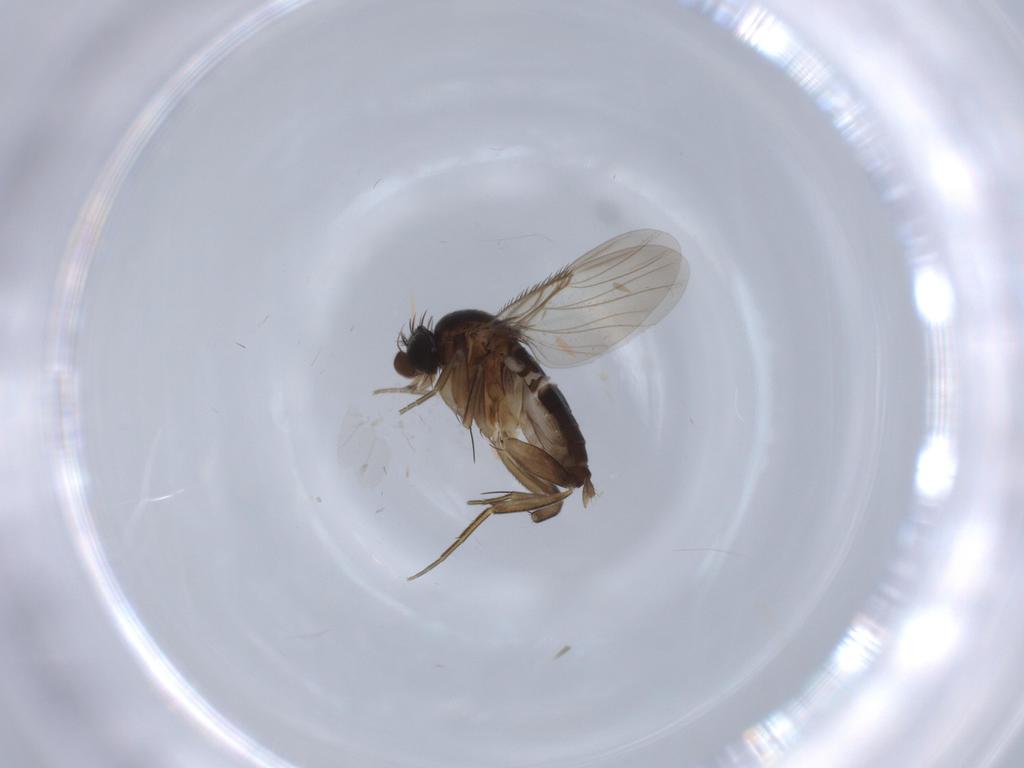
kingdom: Animalia
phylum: Arthropoda
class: Insecta
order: Diptera
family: Phoridae
